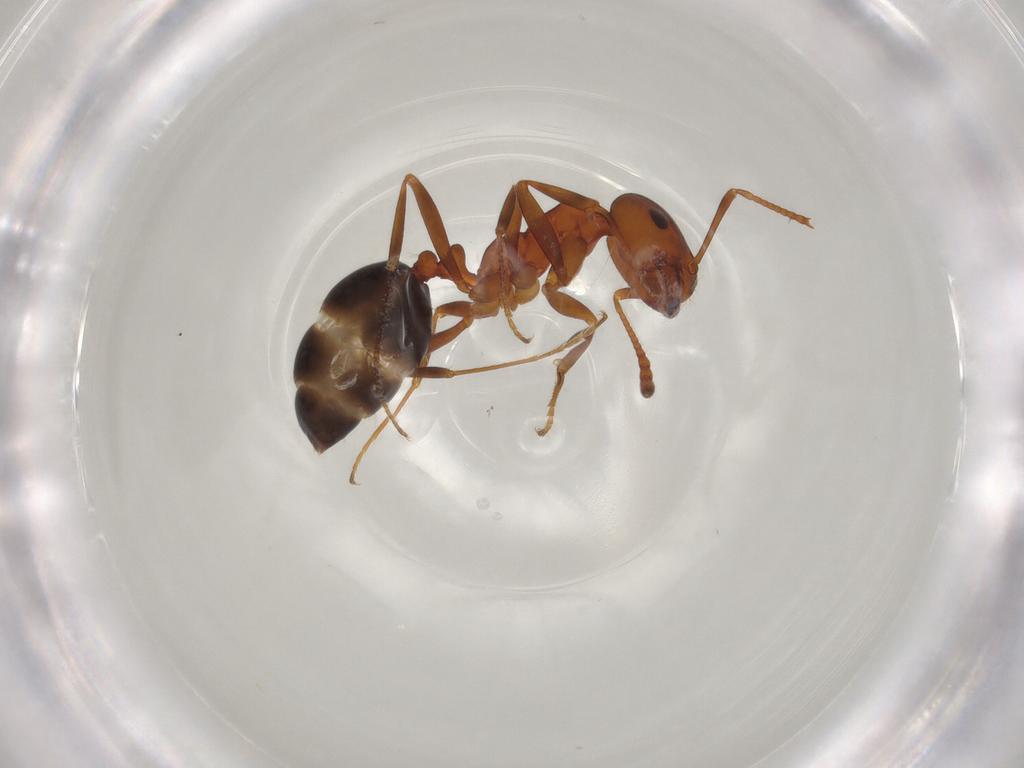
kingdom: Animalia
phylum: Arthropoda
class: Insecta
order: Hymenoptera
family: Formicidae
